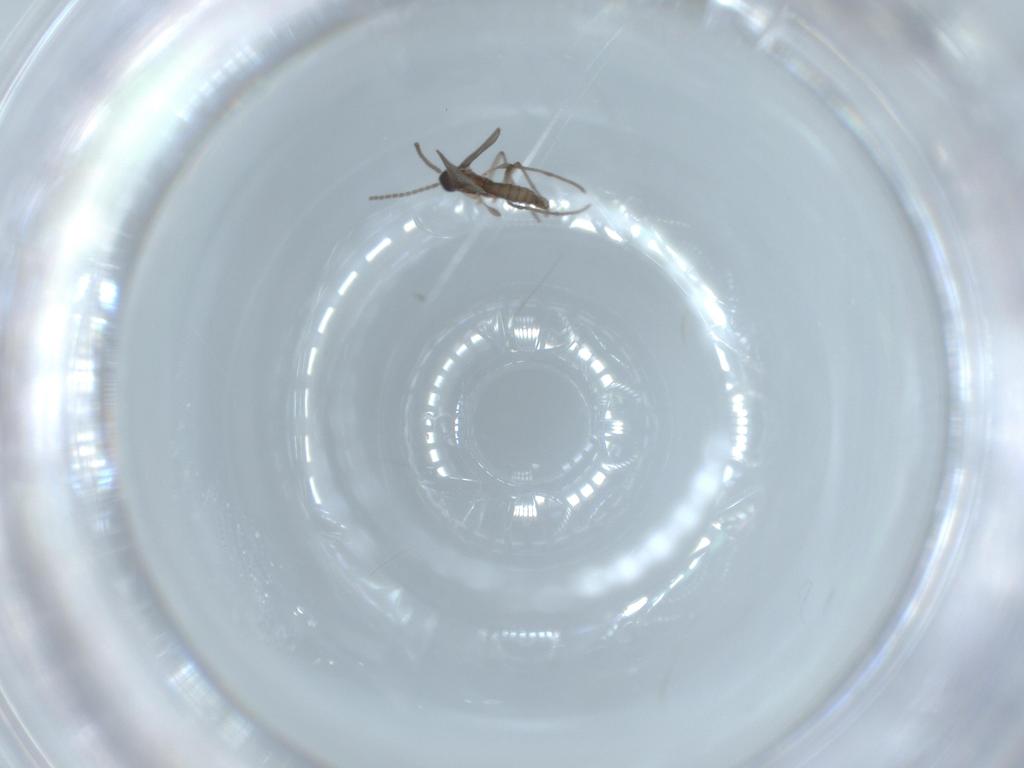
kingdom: Animalia
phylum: Arthropoda
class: Insecta
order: Diptera
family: Sciaridae
